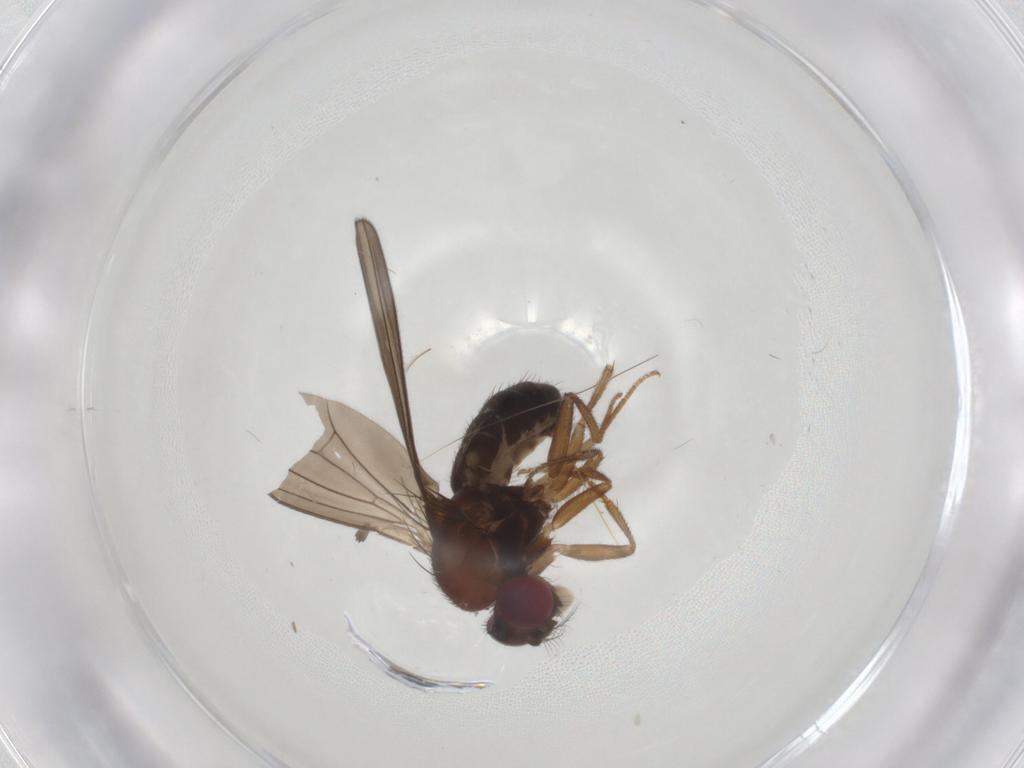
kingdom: Animalia
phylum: Arthropoda
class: Insecta
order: Diptera
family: Drosophilidae
